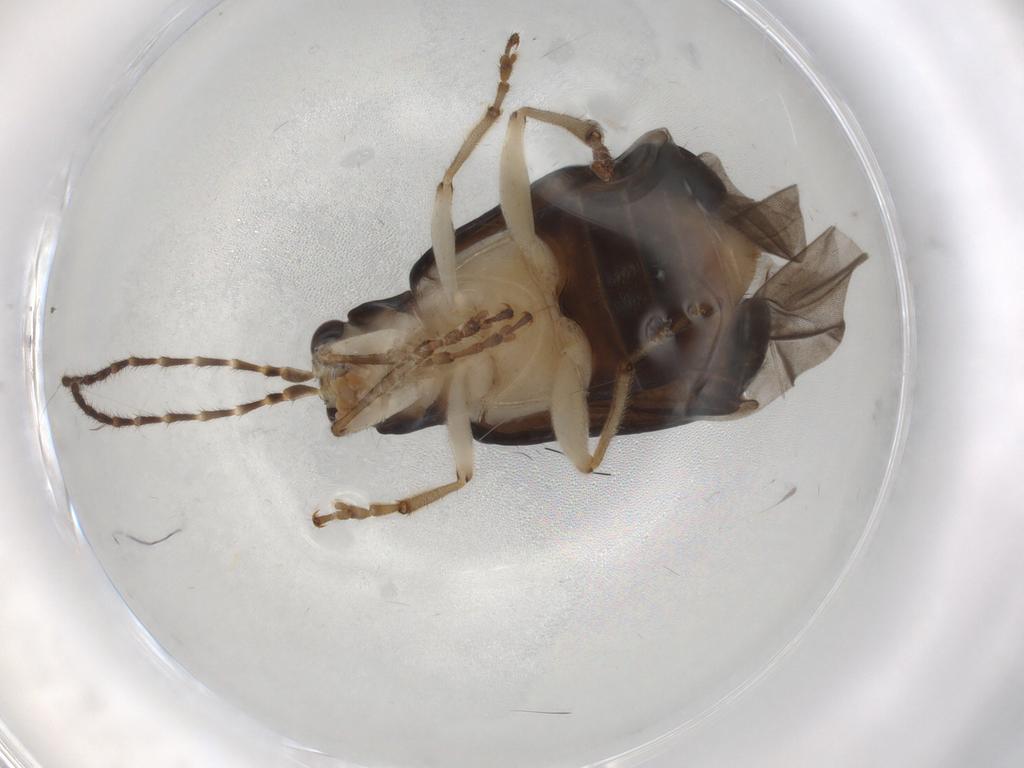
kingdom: Animalia
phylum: Arthropoda
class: Insecta
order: Coleoptera
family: Chrysomelidae
